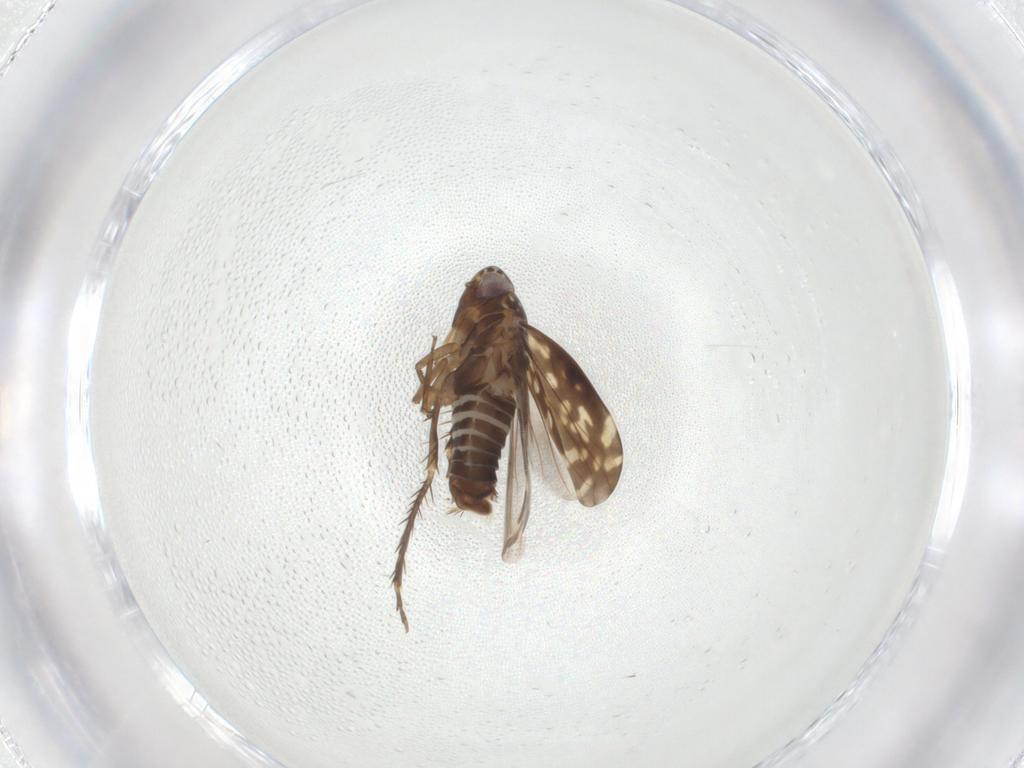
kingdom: Animalia
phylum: Arthropoda
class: Insecta
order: Hemiptera
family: Cicadellidae
